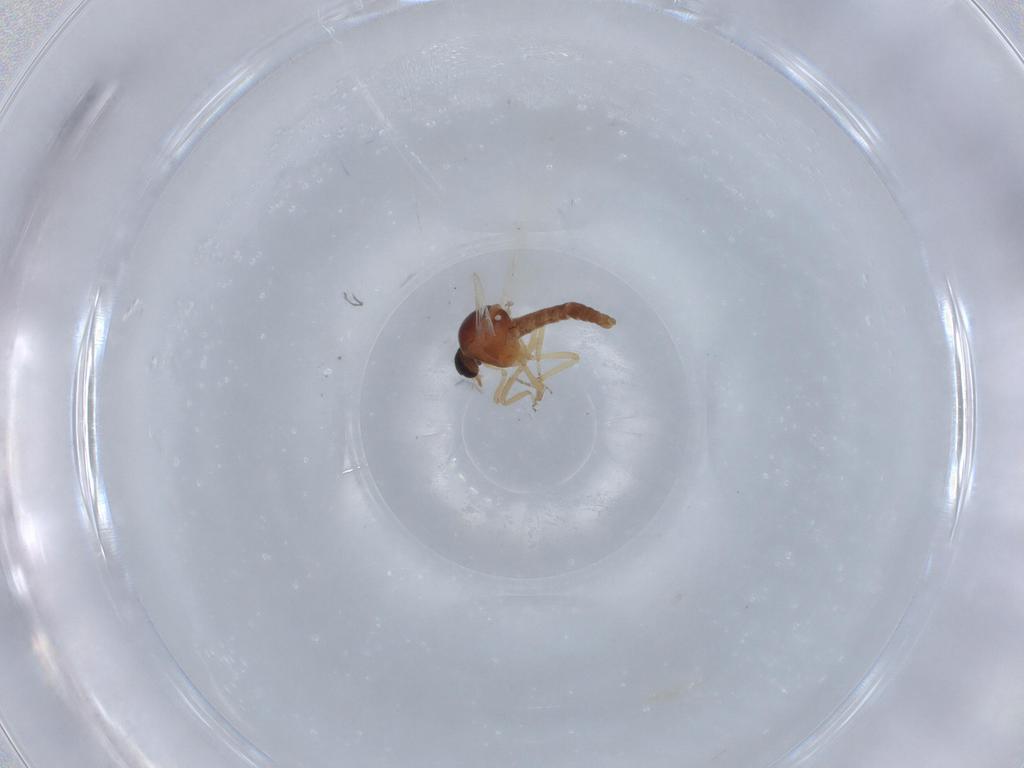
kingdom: Animalia
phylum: Arthropoda
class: Insecta
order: Diptera
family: Ceratopogonidae
